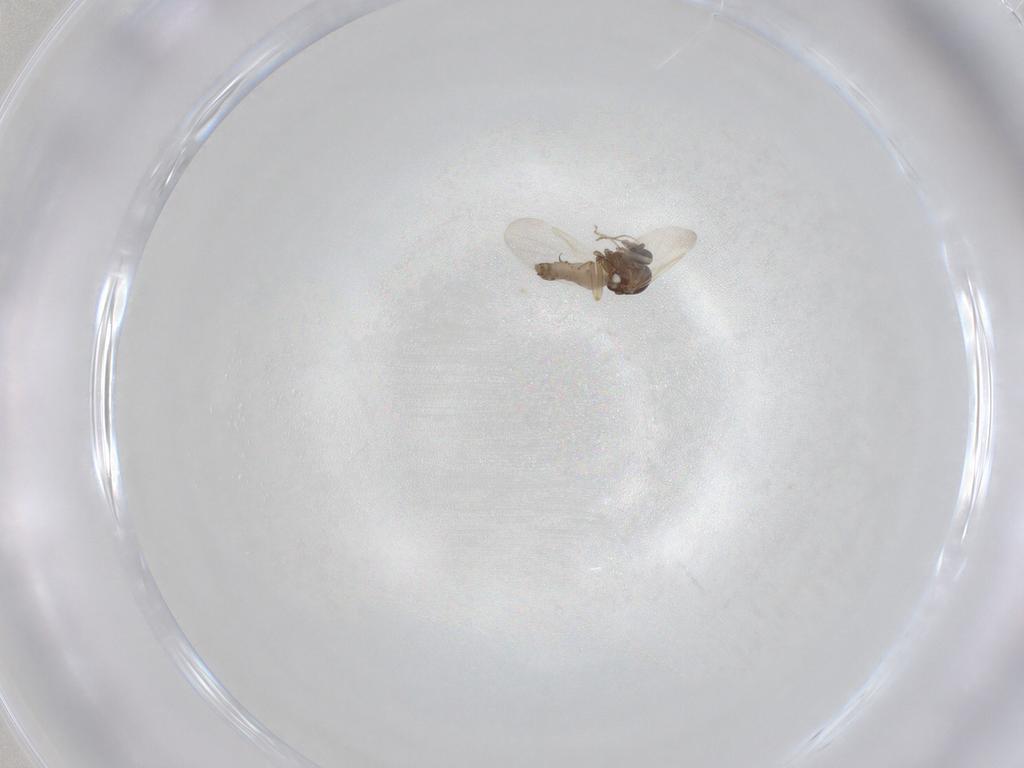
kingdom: Animalia
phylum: Arthropoda
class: Insecta
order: Diptera
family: Ceratopogonidae
